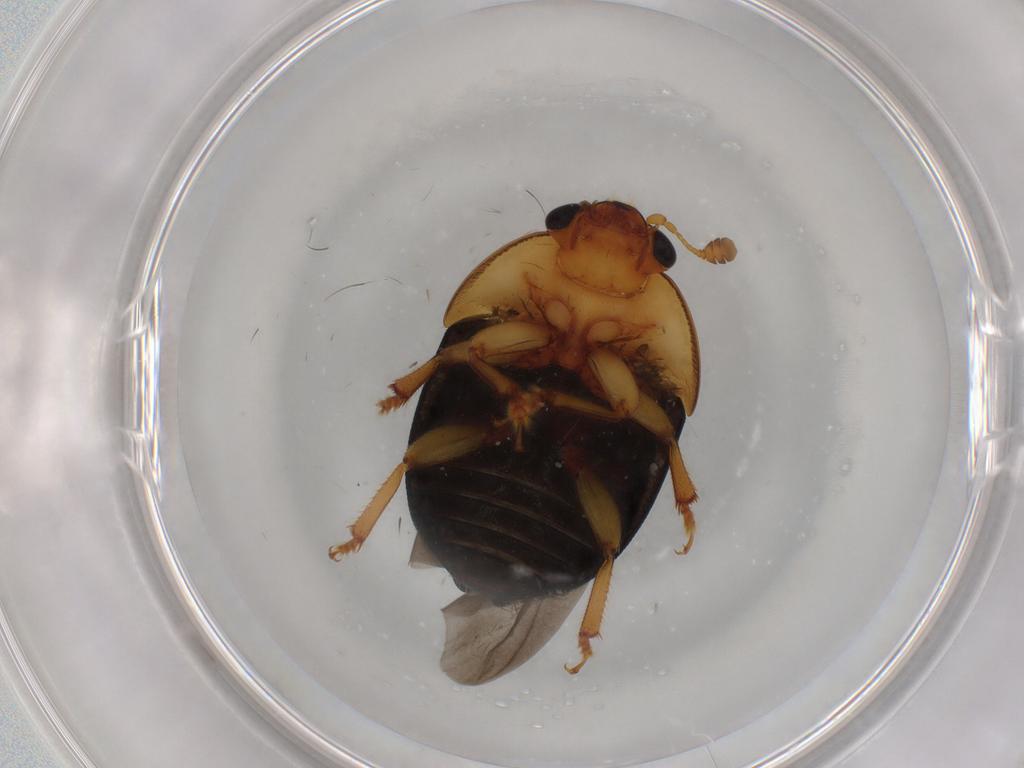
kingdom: Animalia
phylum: Arthropoda
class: Insecta
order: Coleoptera
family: Nitidulidae
